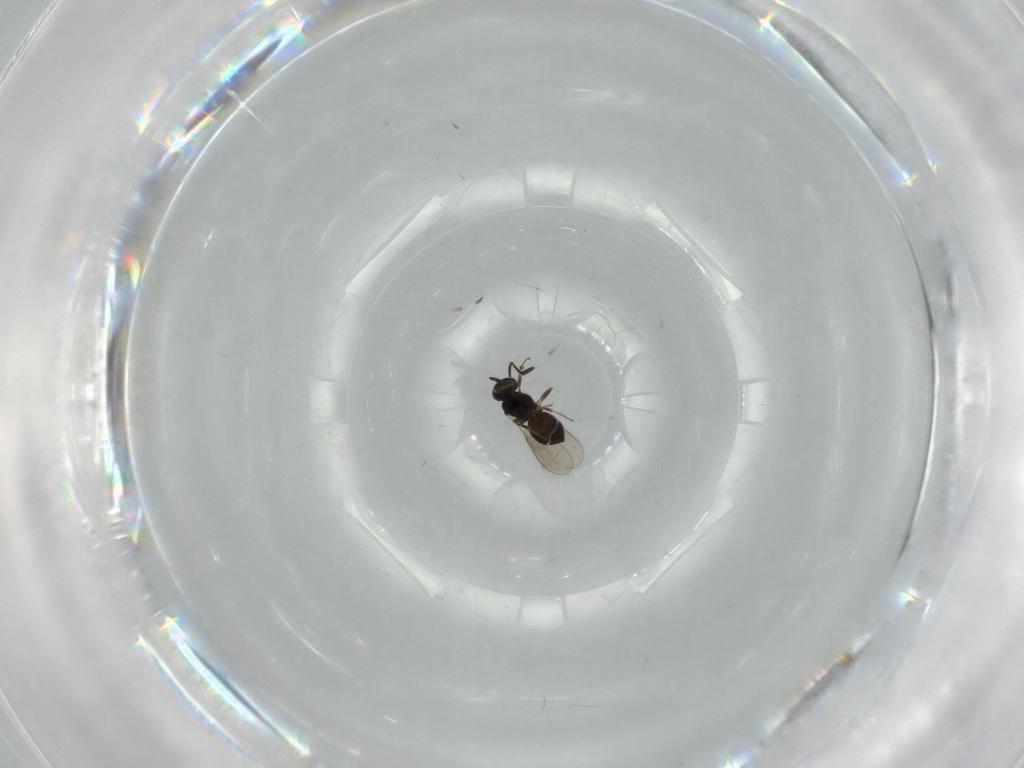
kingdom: Animalia
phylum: Arthropoda
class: Insecta
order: Hymenoptera
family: Scelionidae
